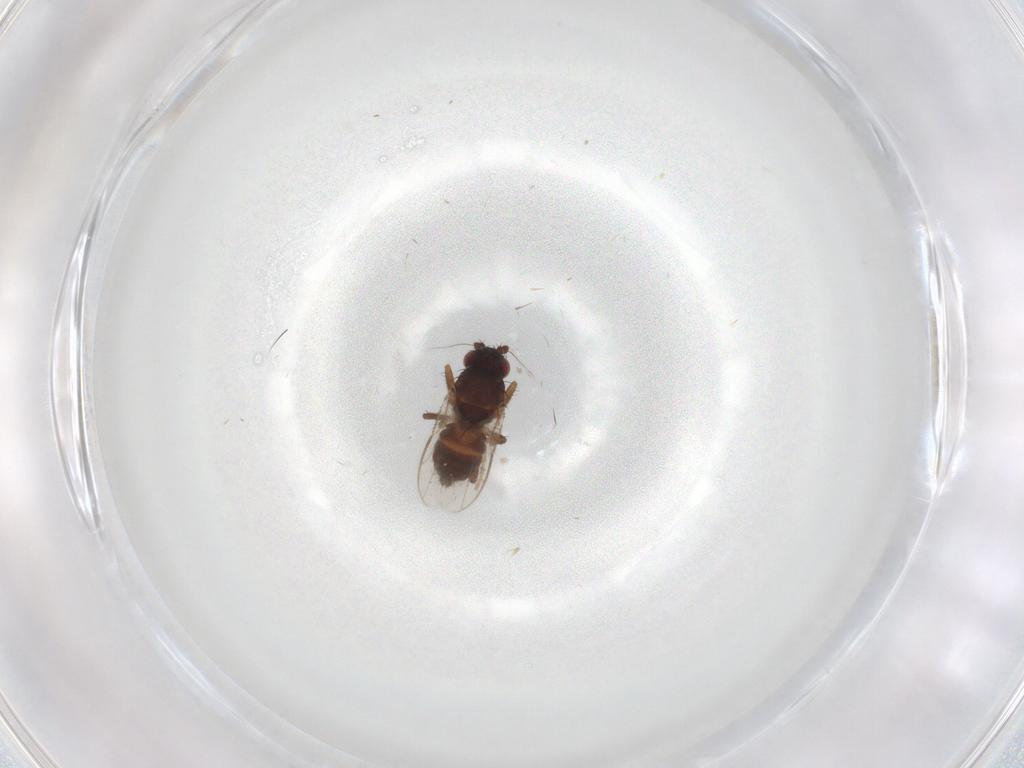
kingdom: Animalia
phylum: Arthropoda
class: Insecta
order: Diptera
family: Sphaeroceridae
